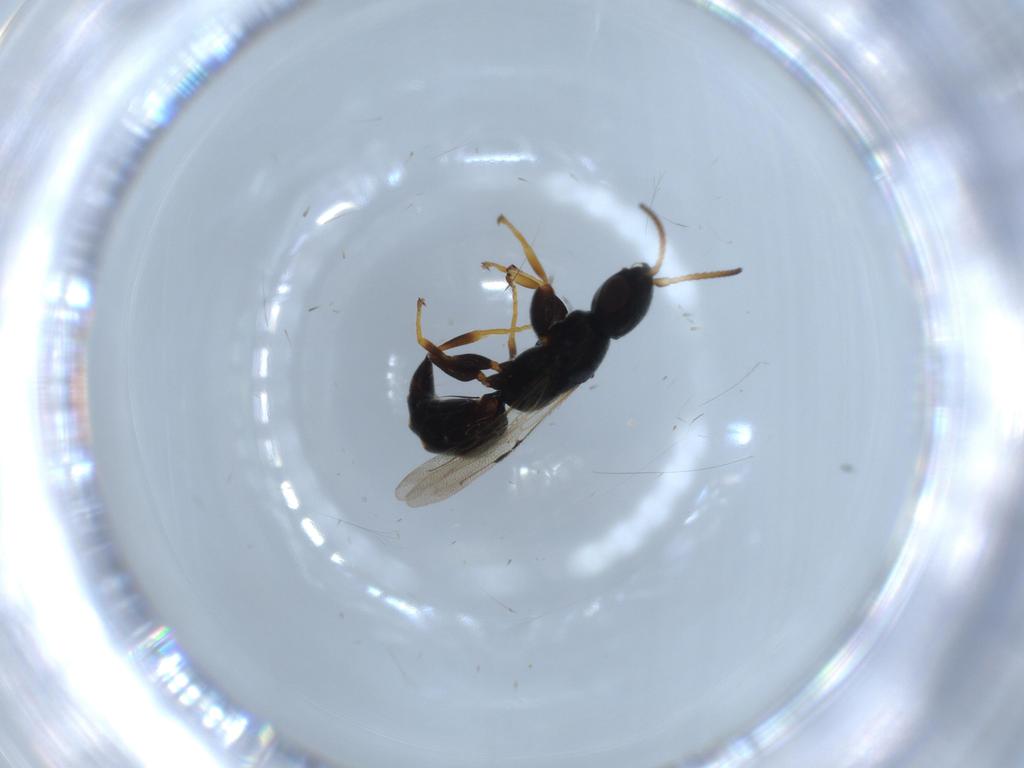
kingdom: Animalia
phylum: Arthropoda
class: Insecta
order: Hymenoptera
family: Bethylidae
